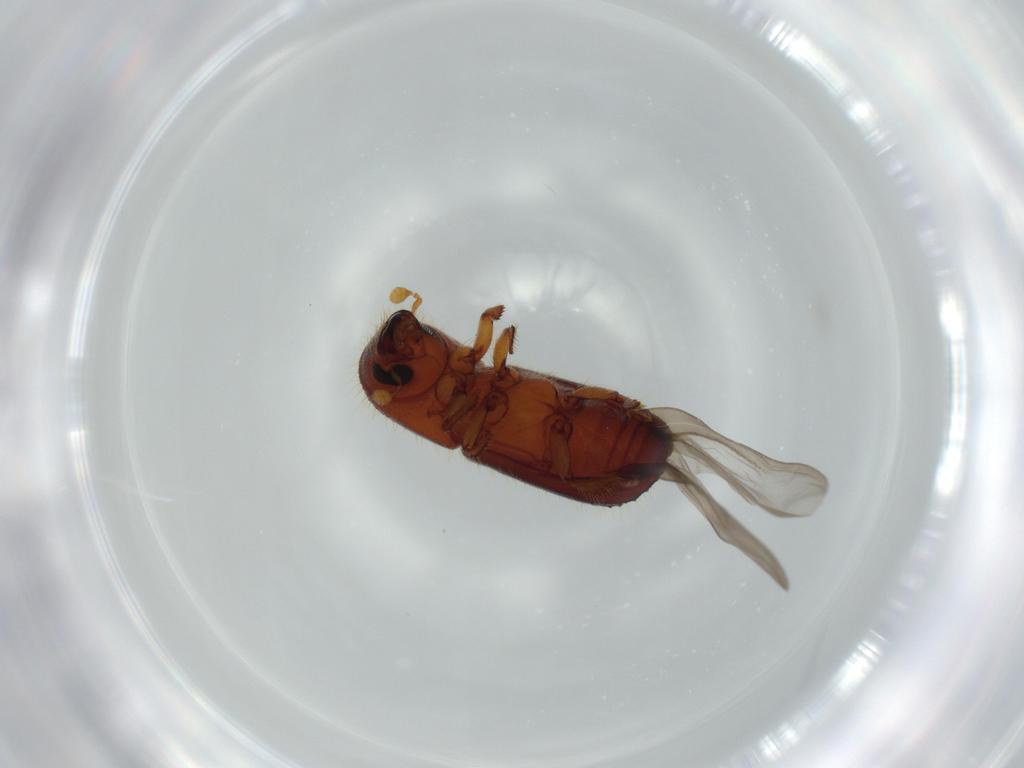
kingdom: Animalia
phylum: Arthropoda
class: Insecta
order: Coleoptera
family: Curculionidae
